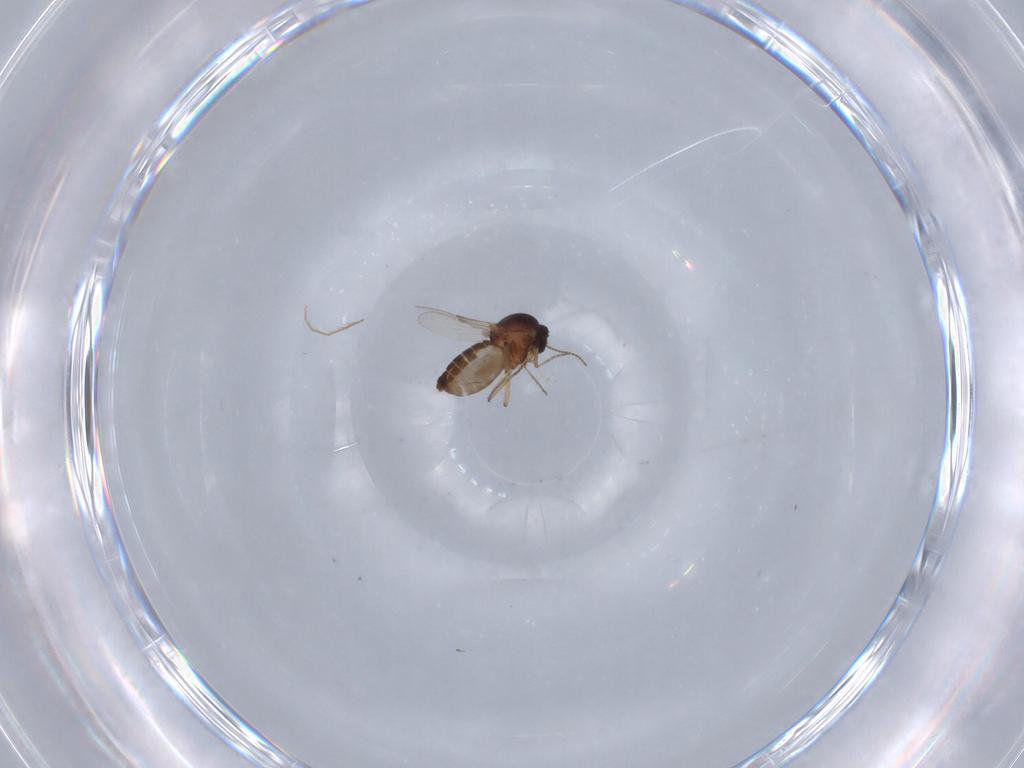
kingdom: Animalia
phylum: Arthropoda
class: Insecta
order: Diptera
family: Ceratopogonidae
